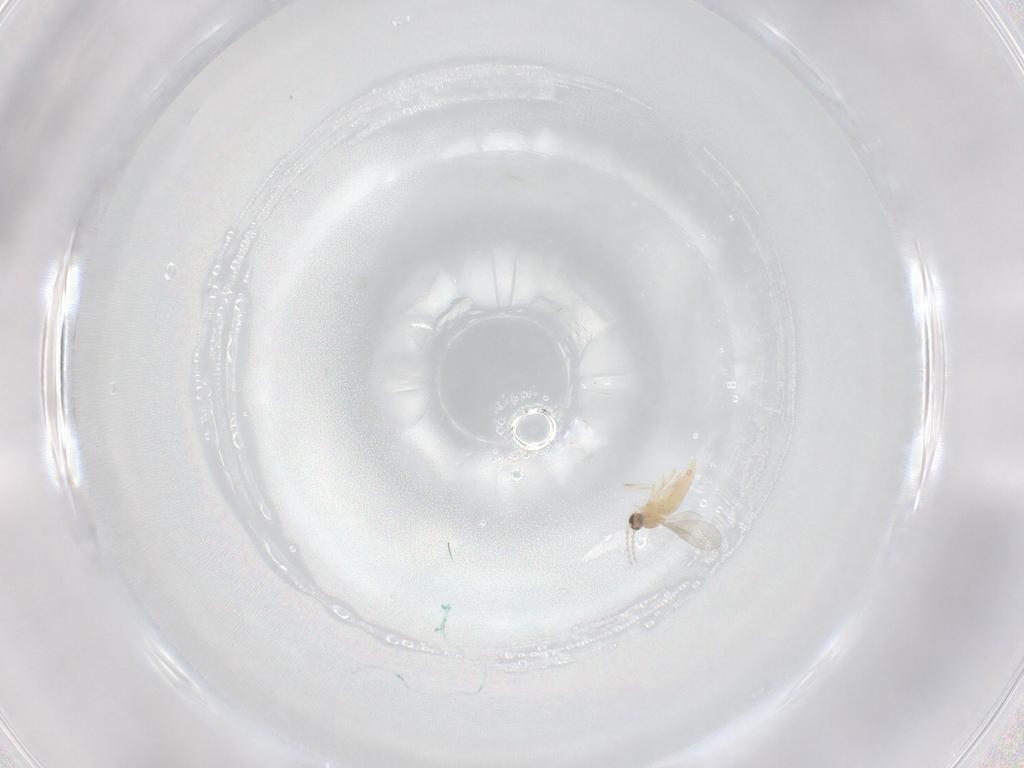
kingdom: Animalia
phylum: Arthropoda
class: Insecta
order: Diptera
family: Cecidomyiidae
